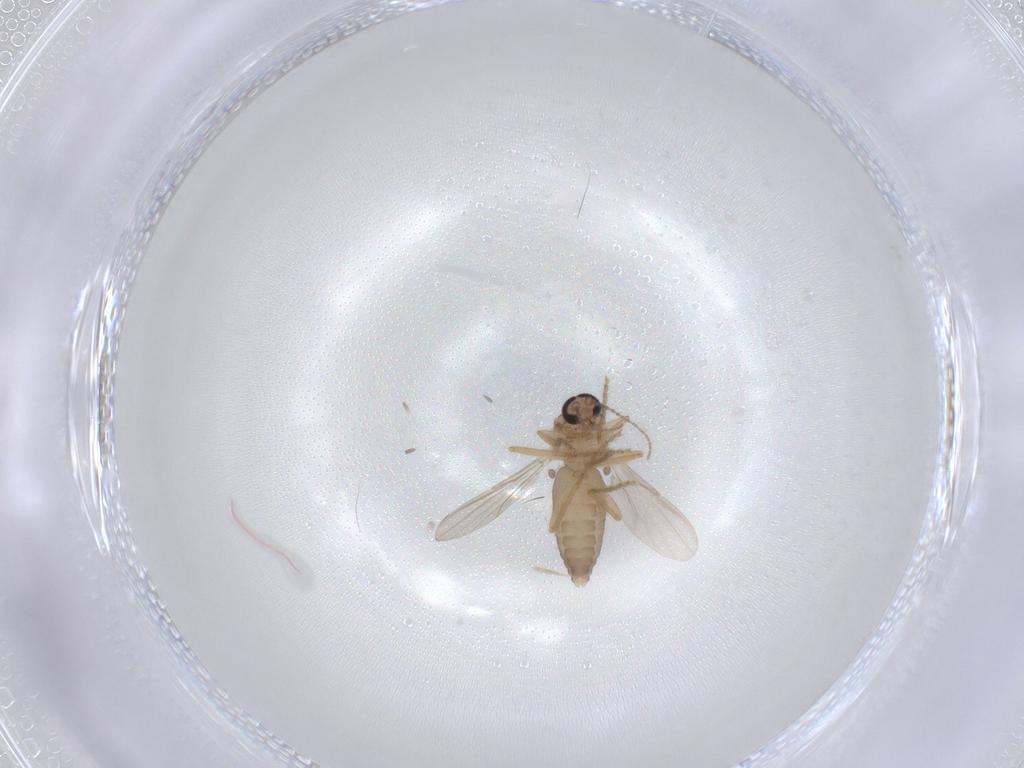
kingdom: Animalia
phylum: Arthropoda
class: Insecta
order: Diptera
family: Ceratopogonidae
